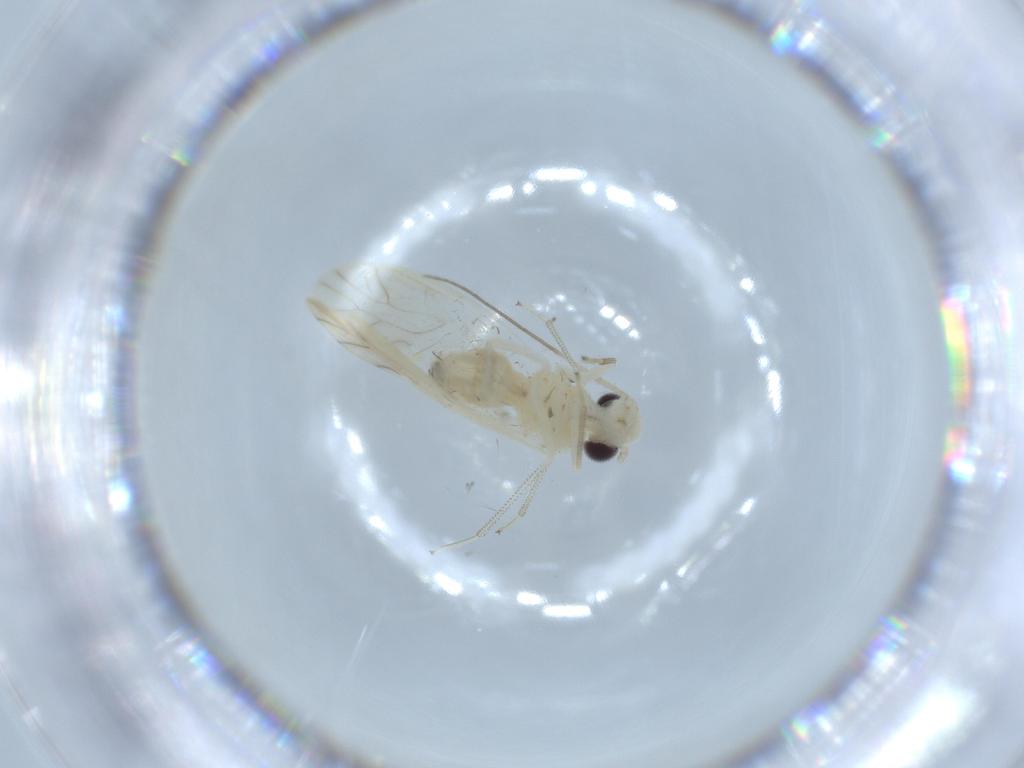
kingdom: Animalia
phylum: Arthropoda
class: Insecta
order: Psocodea
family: Caeciliusidae
